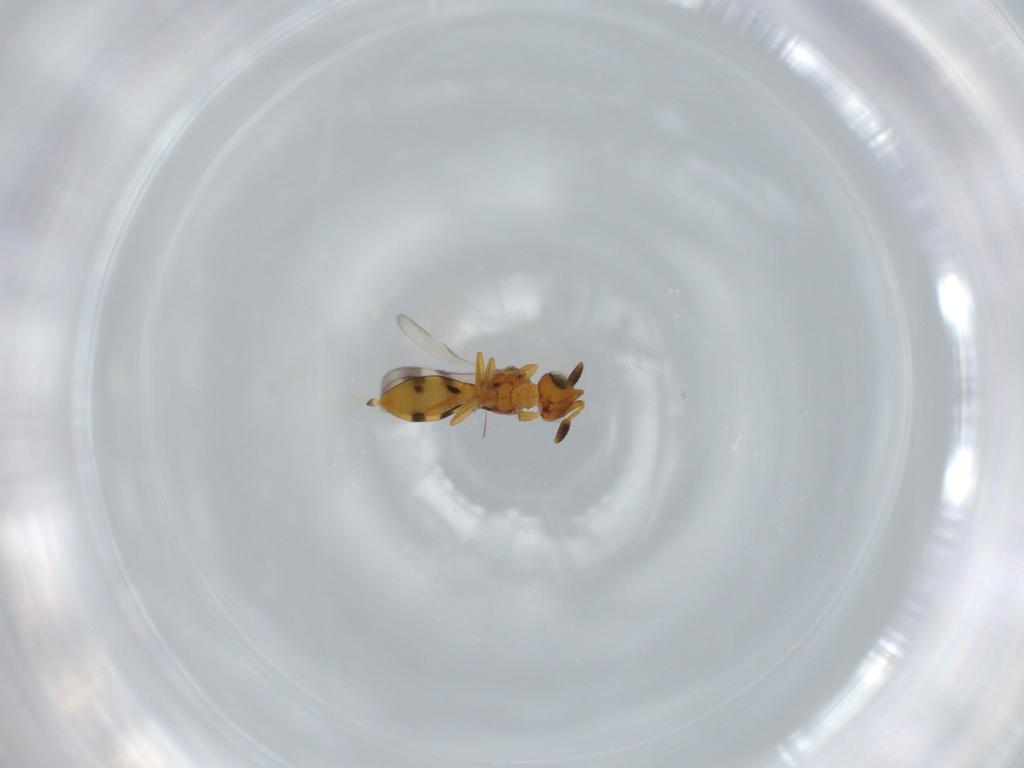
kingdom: Animalia
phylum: Arthropoda
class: Insecta
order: Hymenoptera
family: Scelionidae
